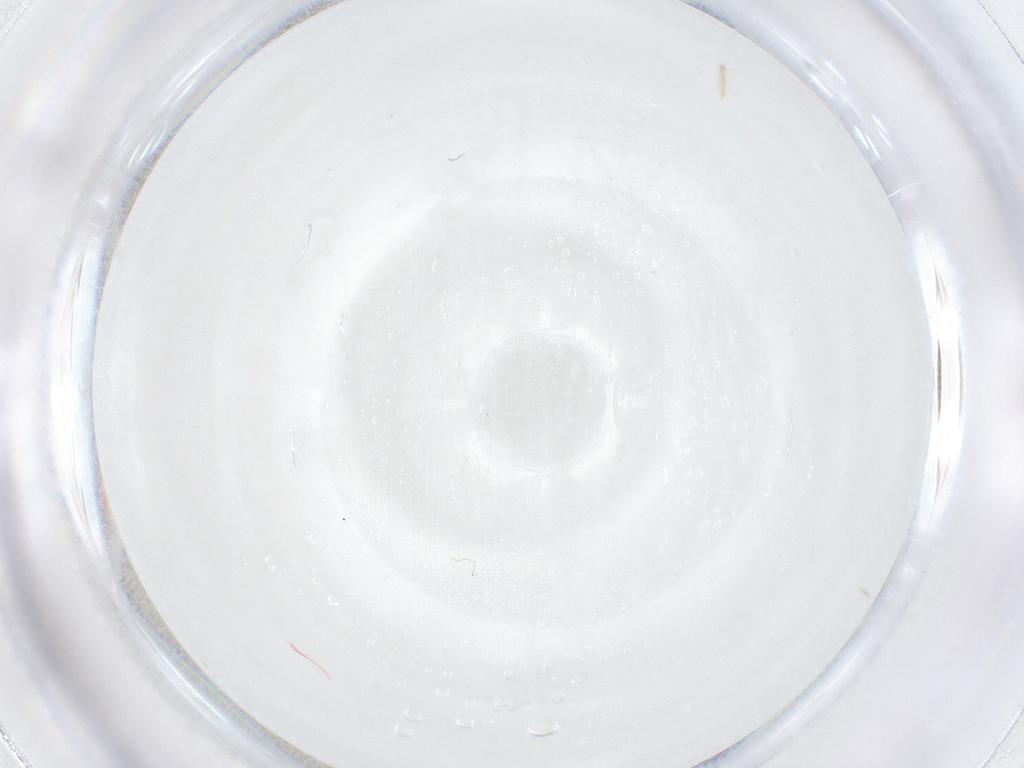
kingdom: Animalia
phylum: Arthropoda
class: Insecta
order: Diptera
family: Cecidomyiidae
